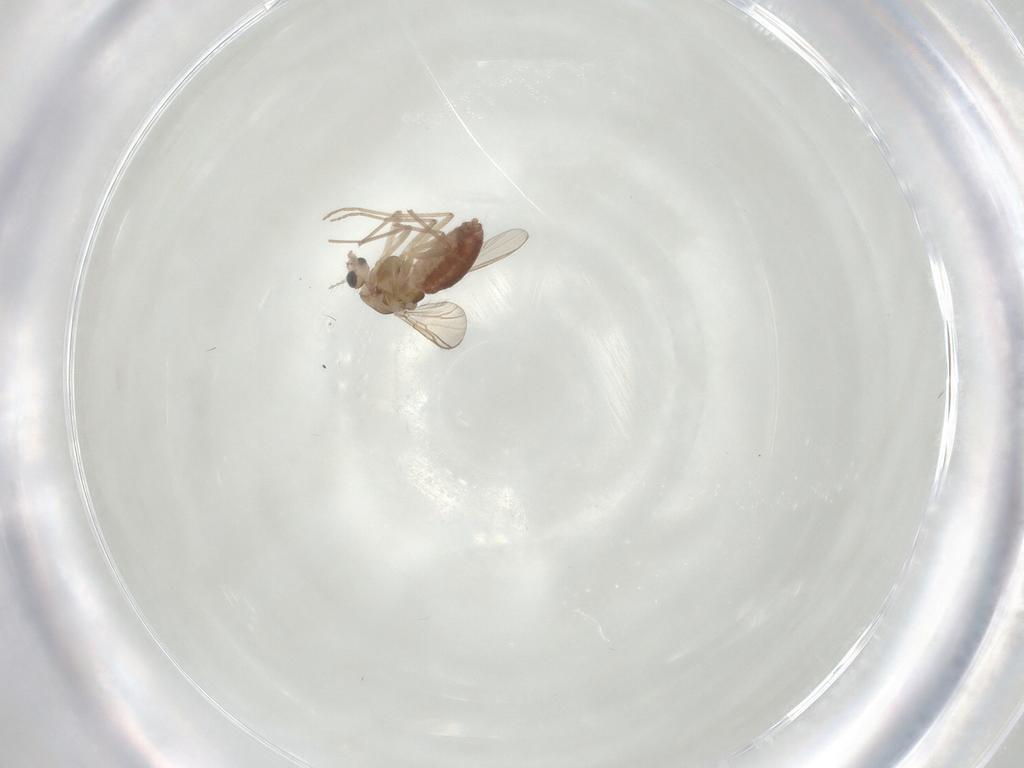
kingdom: Animalia
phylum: Arthropoda
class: Insecta
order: Diptera
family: Chironomidae
